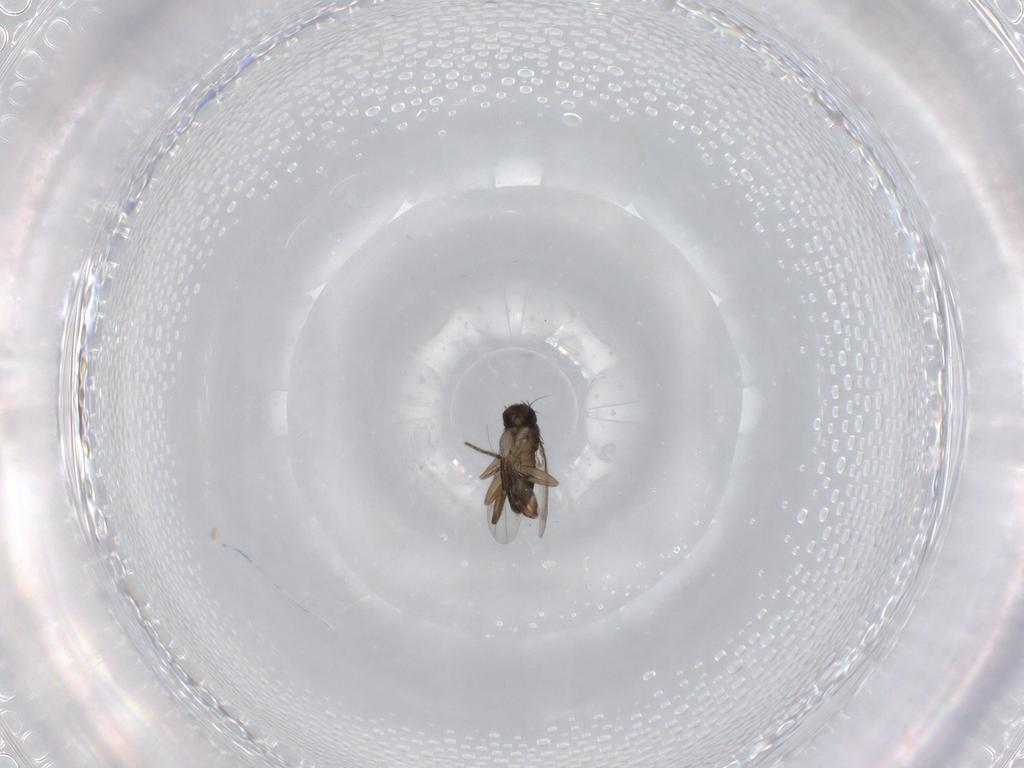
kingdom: Animalia
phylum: Arthropoda
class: Insecta
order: Diptera
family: Phoridae
